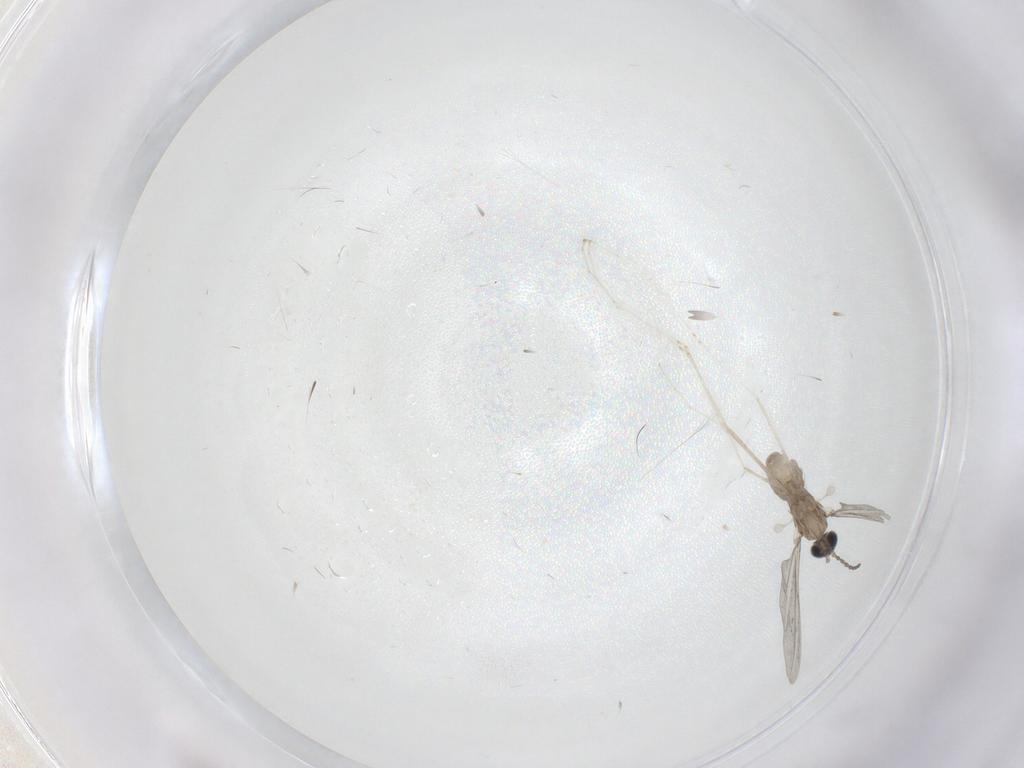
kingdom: Animalia
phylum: Arthropoda
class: Insecta
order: Diptera
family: Cecidomyiidae
